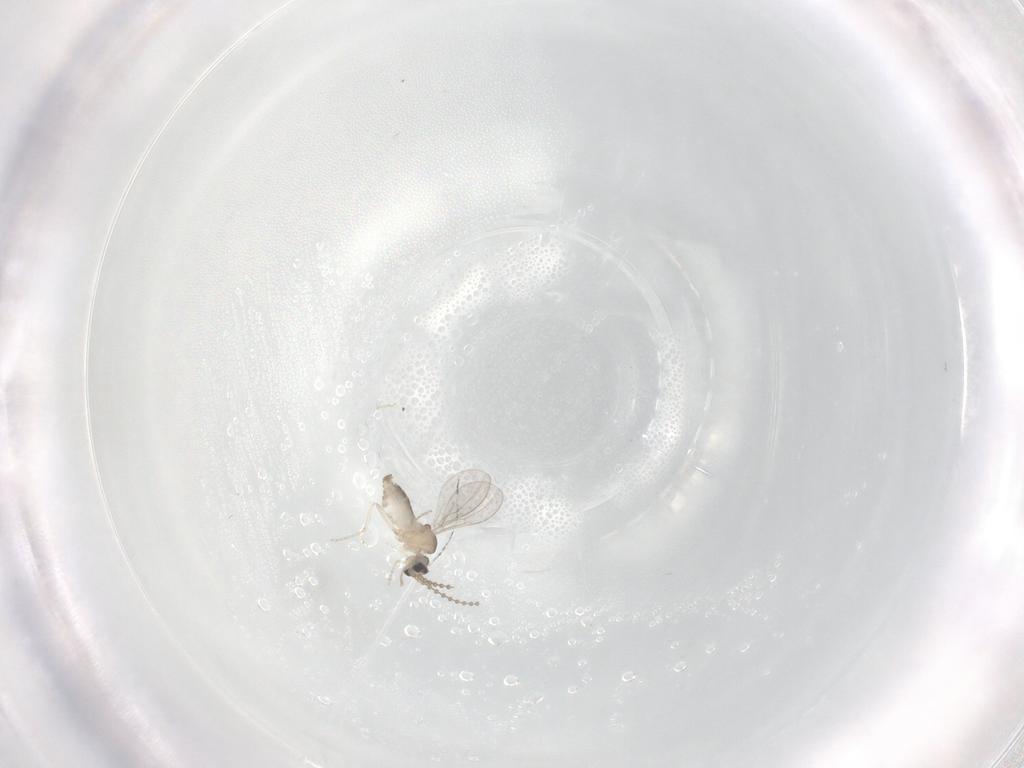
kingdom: Animalia
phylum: Arthropoda
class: Insecta
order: Diptera
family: Cecidomyiidae
